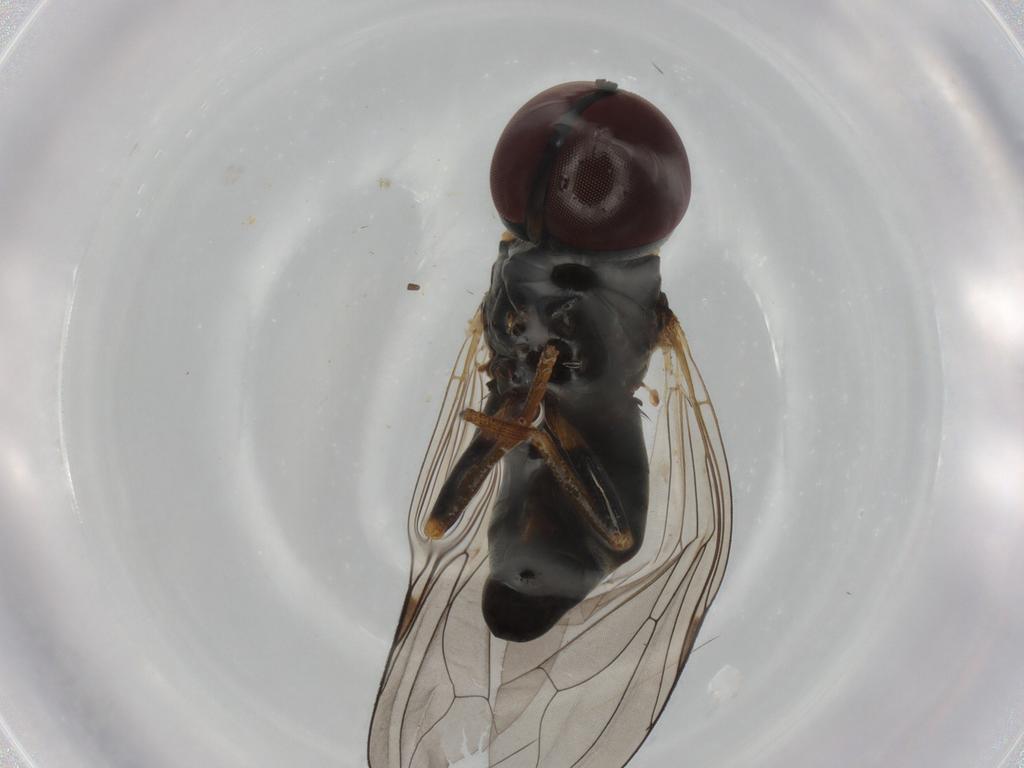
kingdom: Animalia
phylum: Arthropoda
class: Insecta
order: Diptera
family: Pipunculidae
